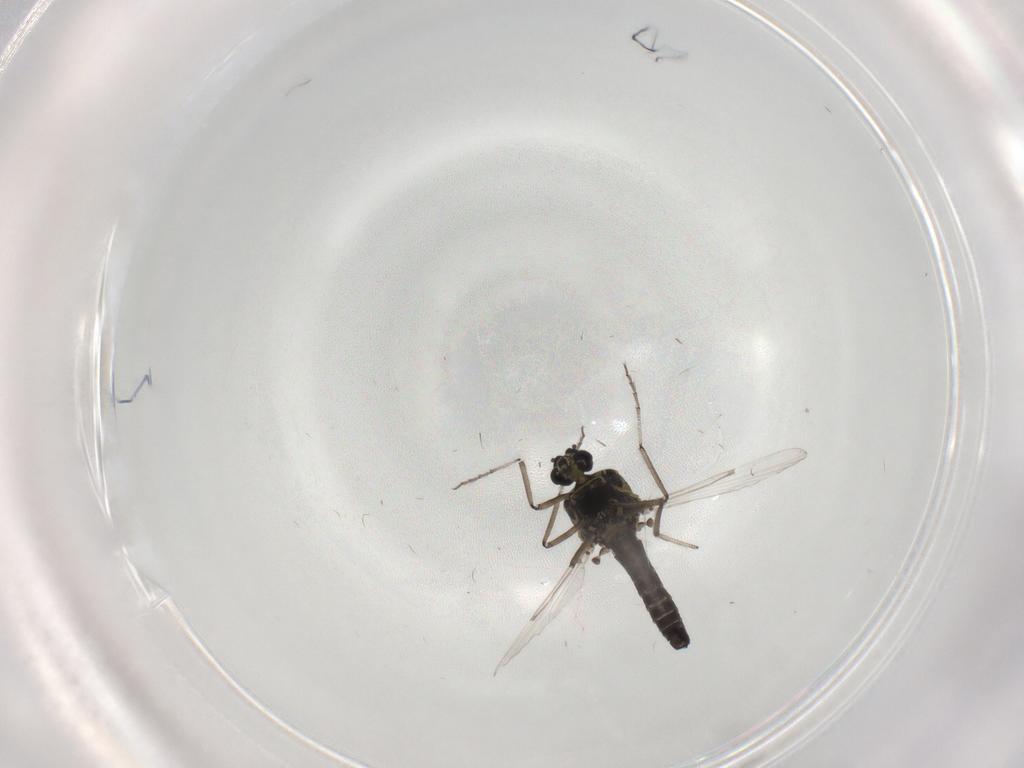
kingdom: Animalia
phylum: Arthropoda
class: Insecta
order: Diptera
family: Ceratopogonidae
